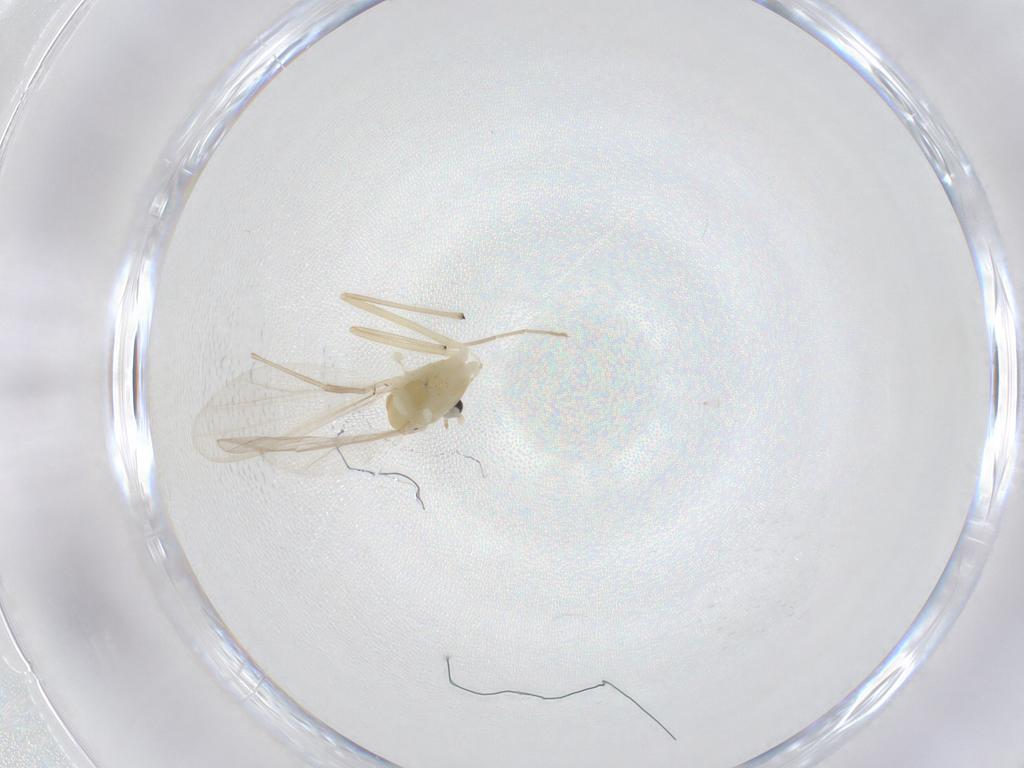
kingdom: Animalia
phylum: Arthropoda
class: Insecta
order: Diptera
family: Chironomidae
